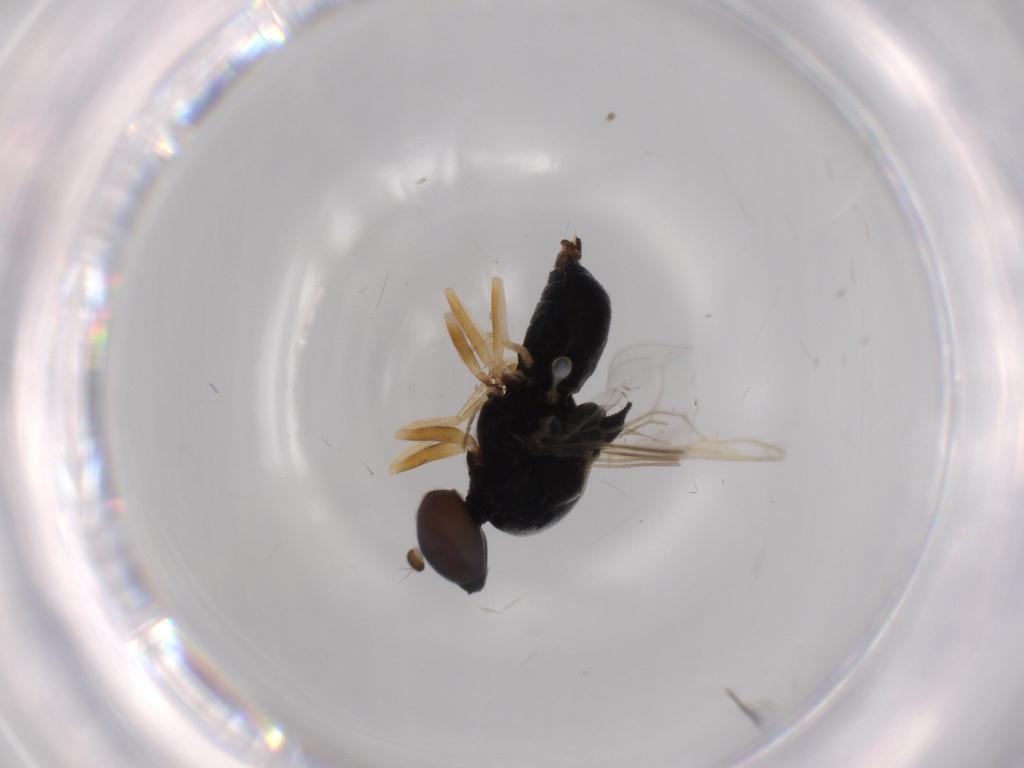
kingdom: Animalia
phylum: Arthropoda
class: Insecta
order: Diptera
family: Stratiomyidae
